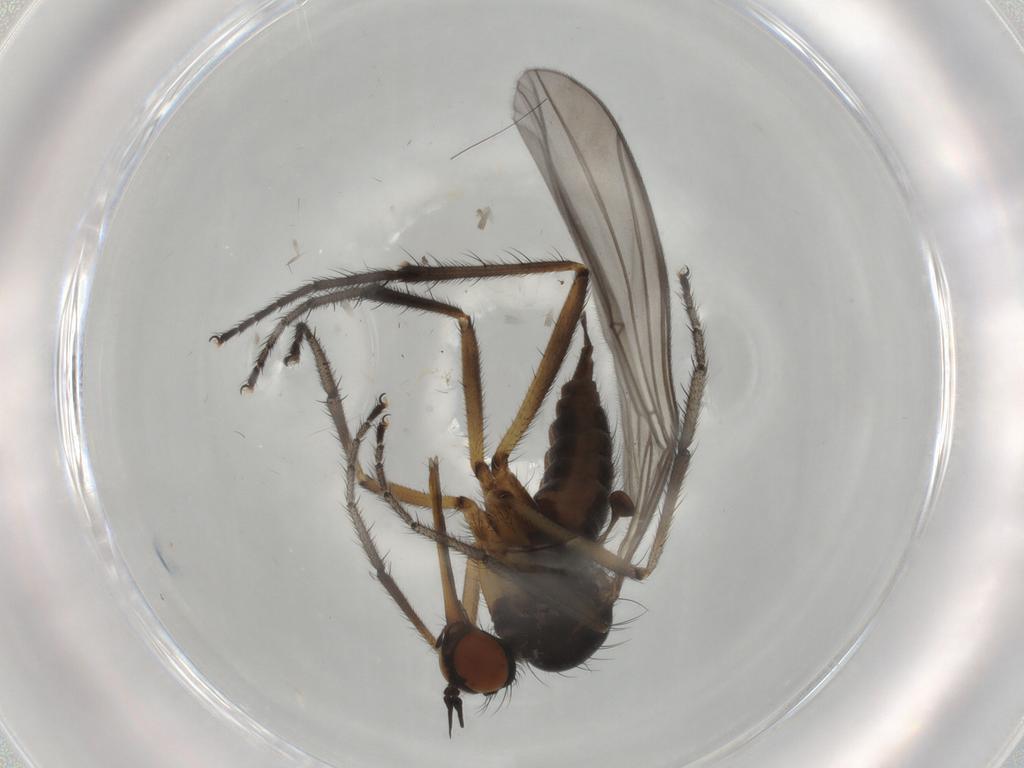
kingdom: Animalia
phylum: Arthropoda
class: Insecta
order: Diptera
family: Empididae
